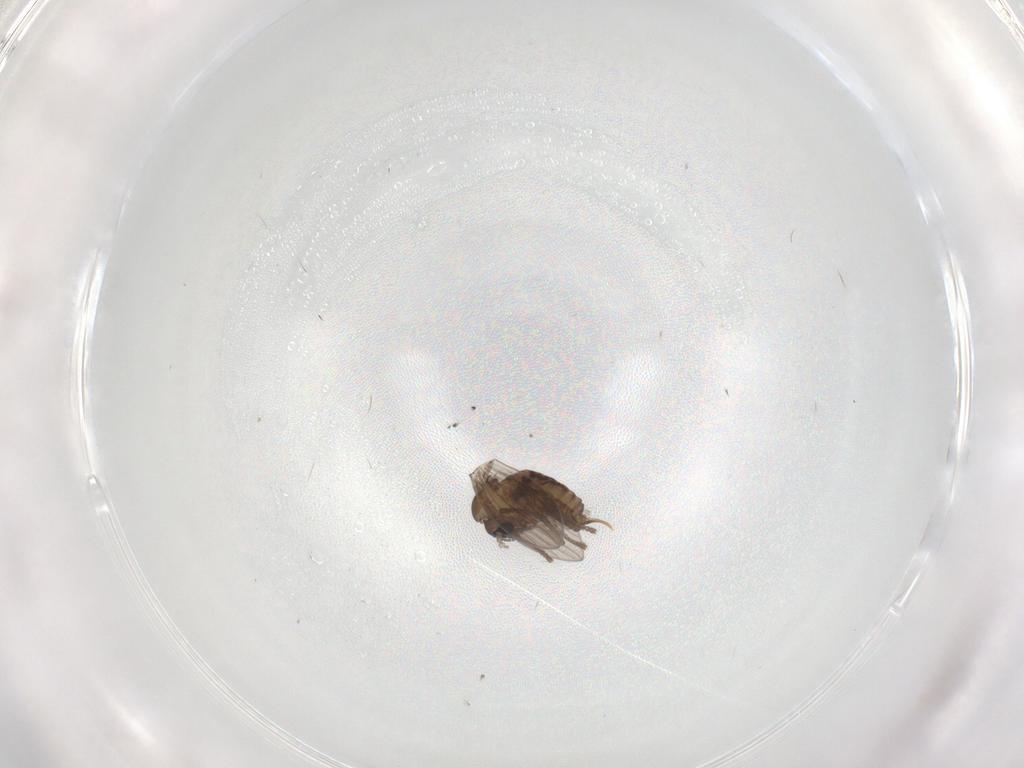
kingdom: Animalia
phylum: Arthropoda
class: Insecta
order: Diptera
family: Psychodidae
